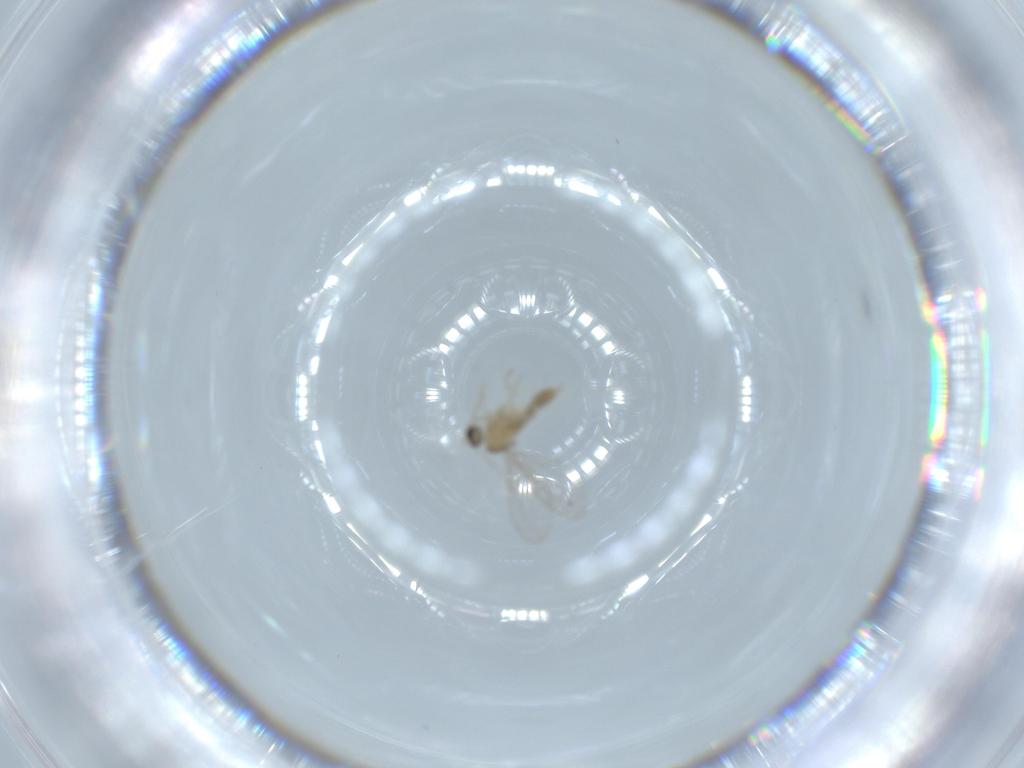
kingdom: Animalia
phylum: Arthropoda
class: Insecta
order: Diptera
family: Cecidomyiidae
